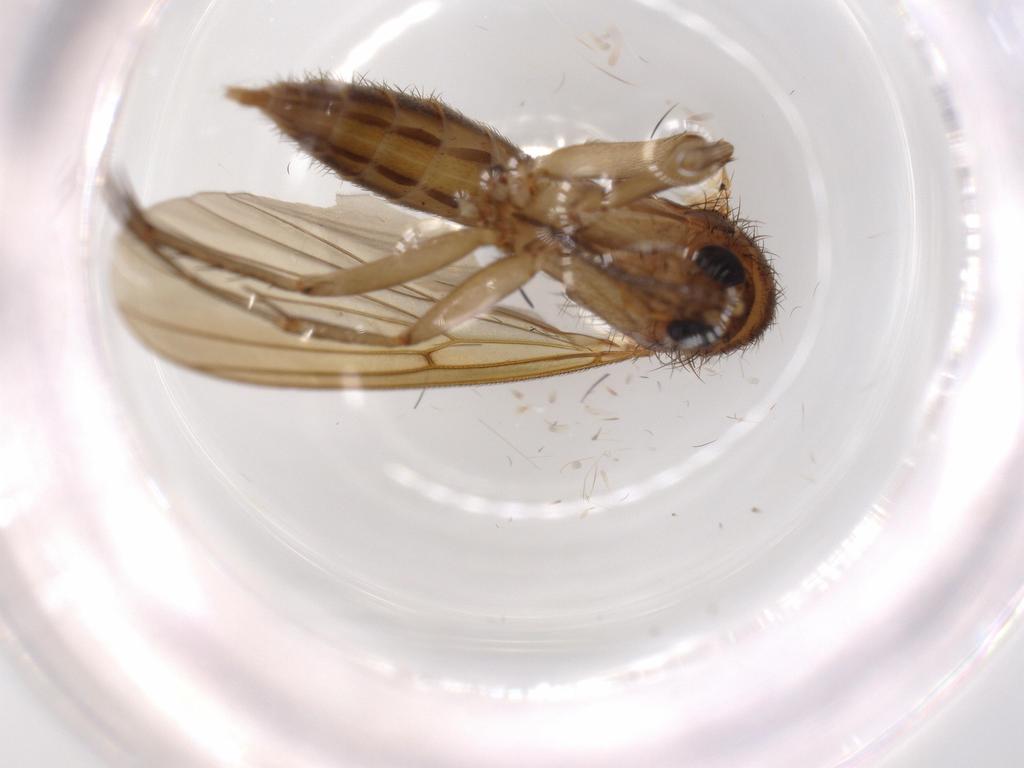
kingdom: Animalia
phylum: Arthropoda
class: Insecta
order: Diptera
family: Mycetophilidae
